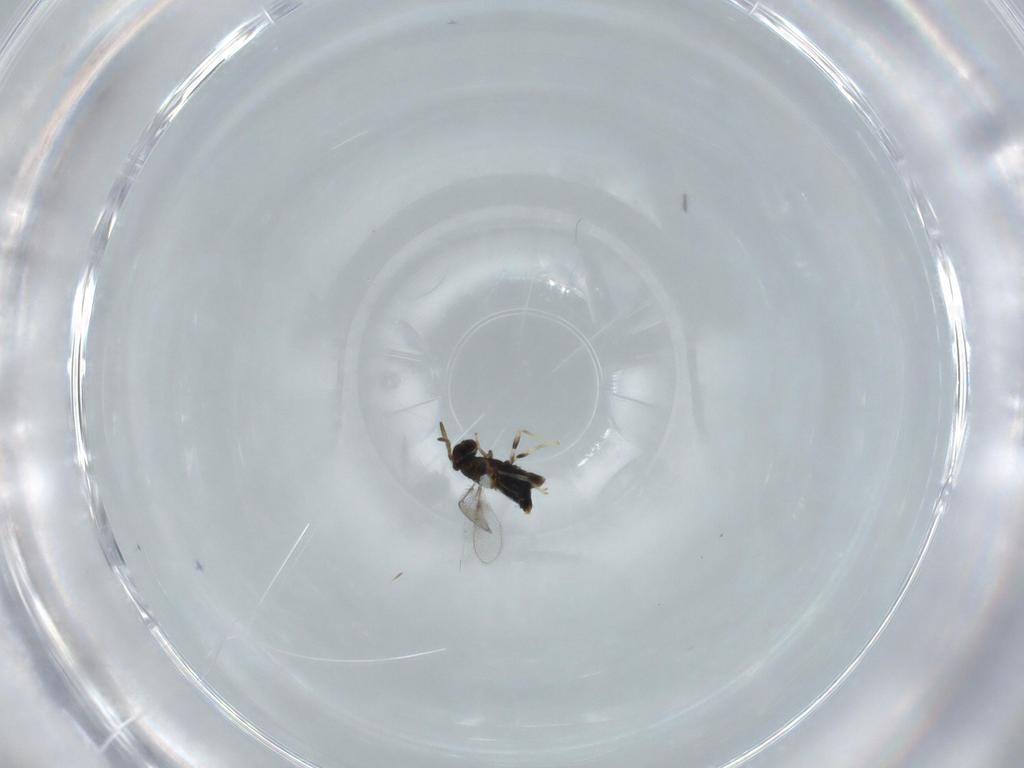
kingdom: Animalia
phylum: Arthropoda
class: Insecta
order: Hymenoptera
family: Aphelinidae
